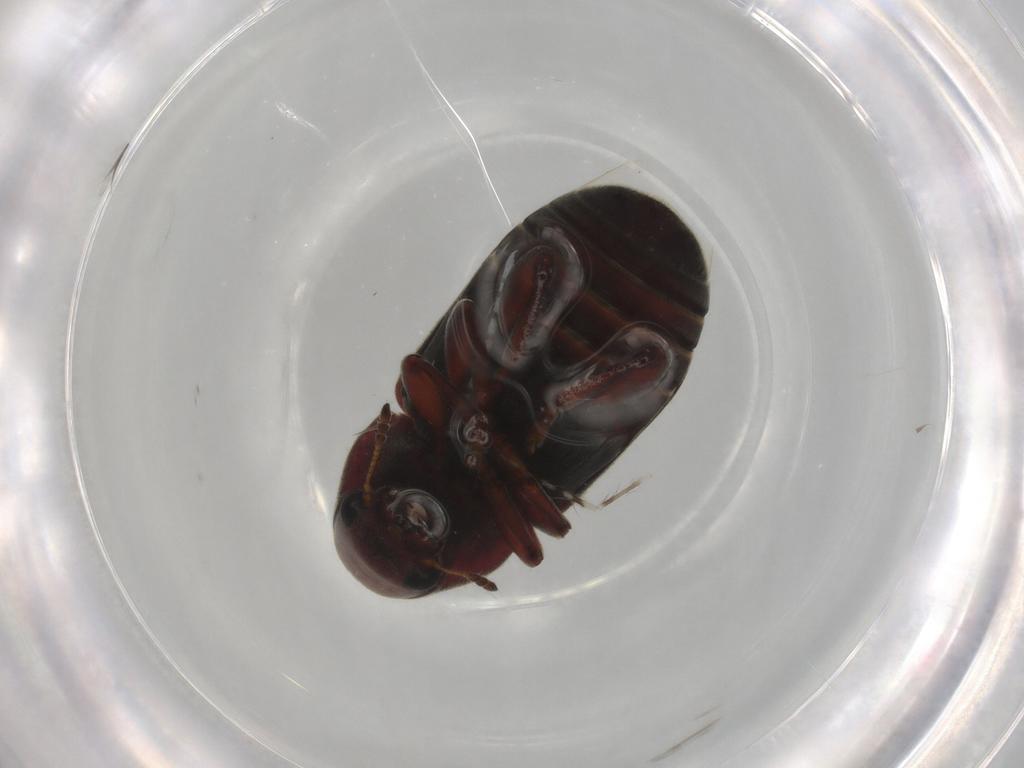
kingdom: Animalia
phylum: Arthropoda
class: Insecta
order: Coleoptera
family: Anthribidae
